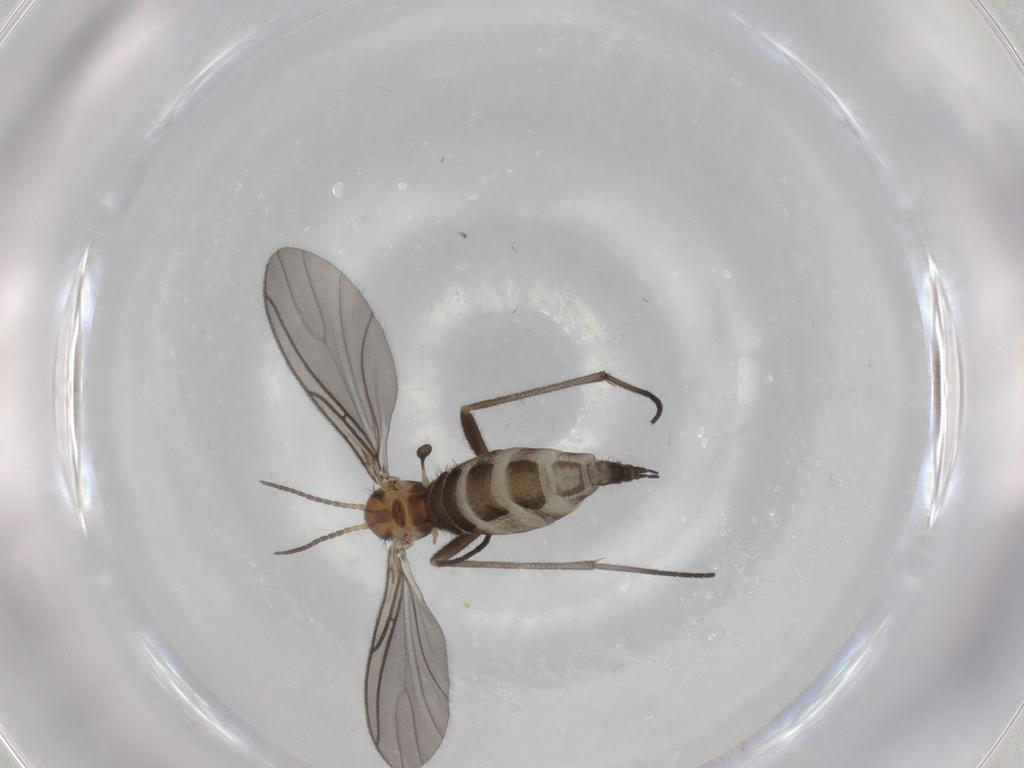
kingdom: Animalia
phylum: Arthropoda
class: Insecta
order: Diptera
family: Sciaridae
